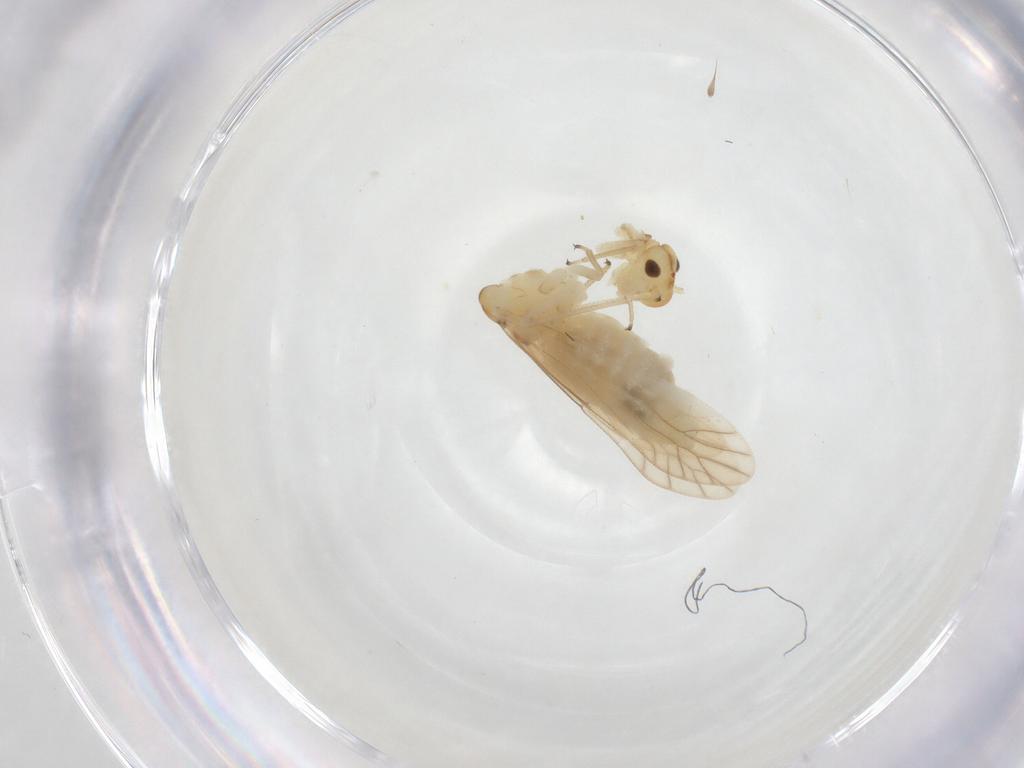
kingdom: Animalia
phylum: Arthropoda
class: Insecta
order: Psocodea
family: Caeciliusidae
